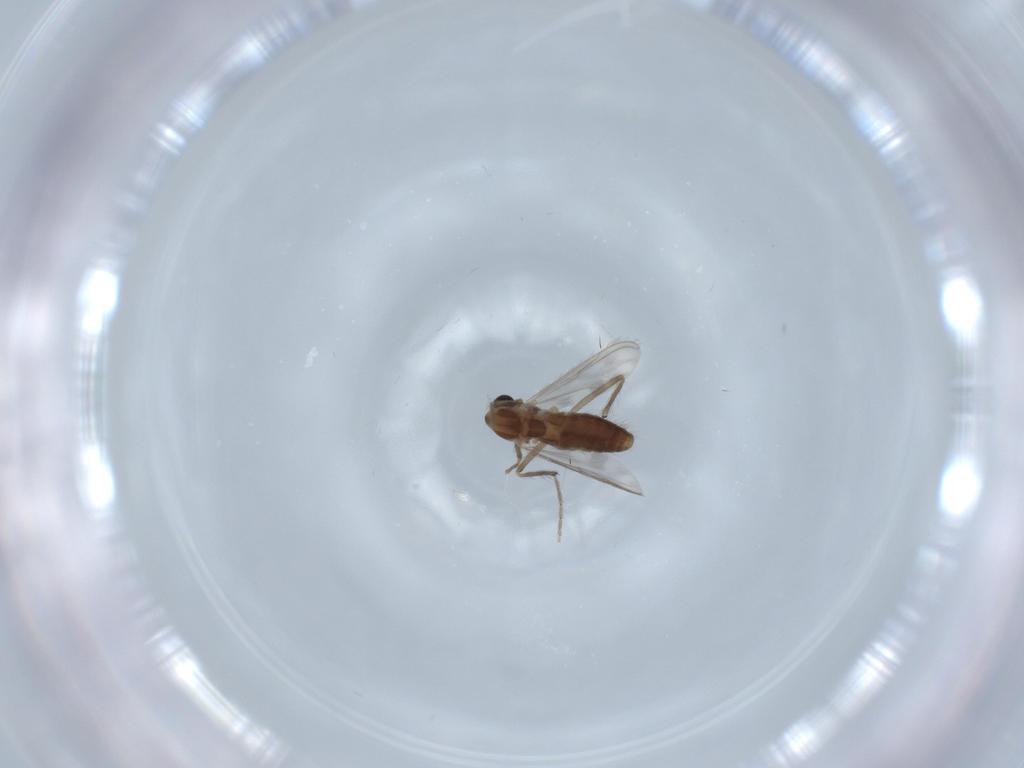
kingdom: Animalia
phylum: Arthropoda
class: Insecta
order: Diptera
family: Chironomidae
